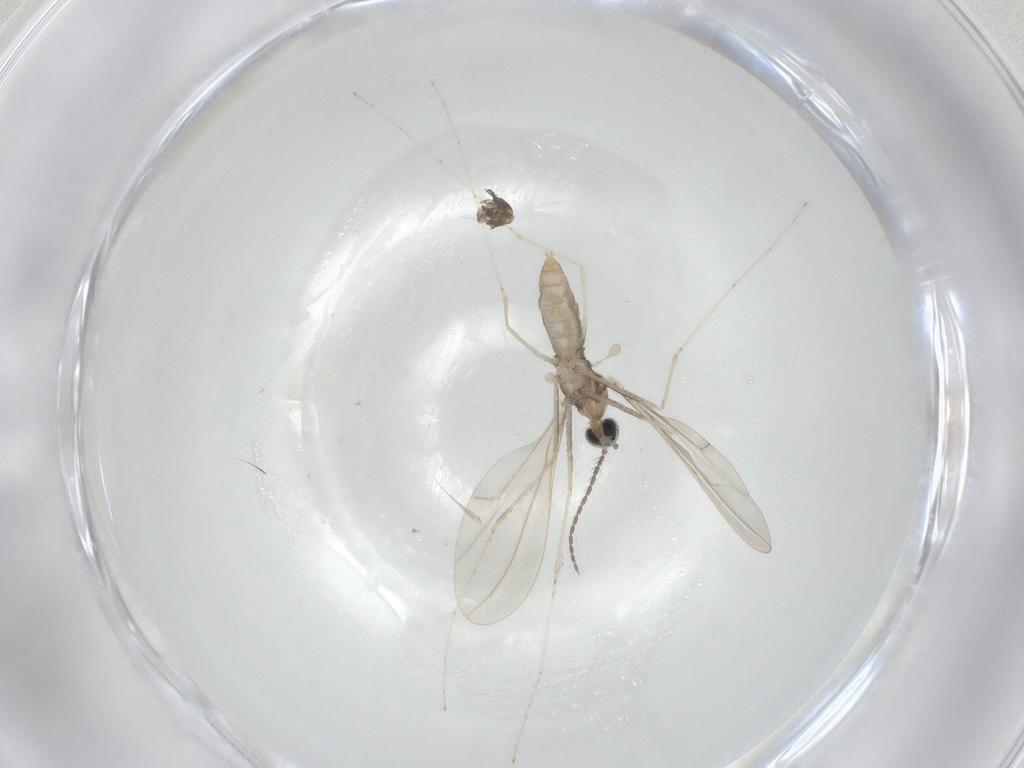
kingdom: Animalia
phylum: Arthropoda
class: Insecta
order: Diptera
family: Cecidomyiidae
